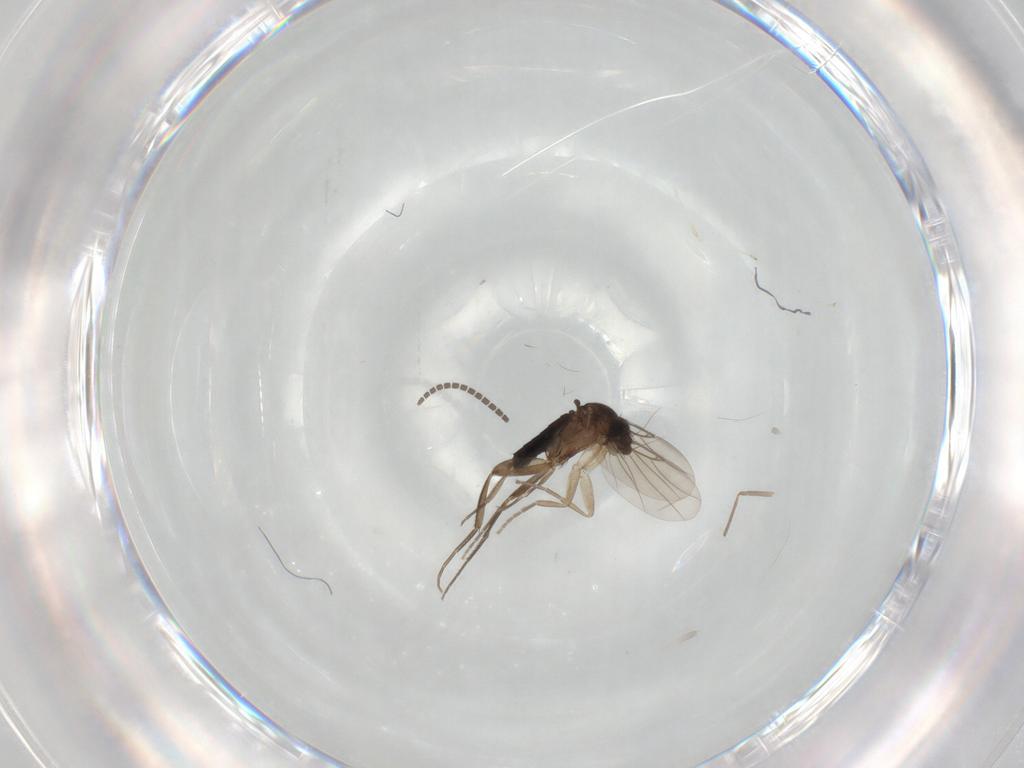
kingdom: Animalia
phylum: Arthropoda
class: Insecta
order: Diptera
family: Phoridae
